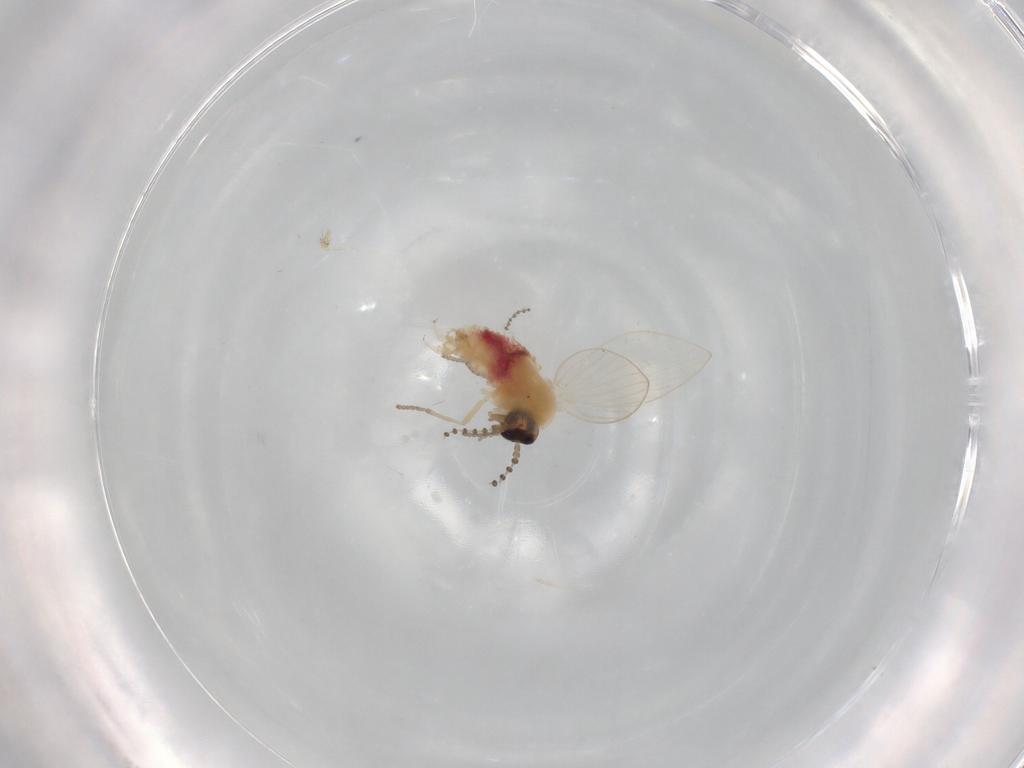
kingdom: Animalia
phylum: Arthropoda
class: Insecta
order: Diptera
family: Psychodidae
